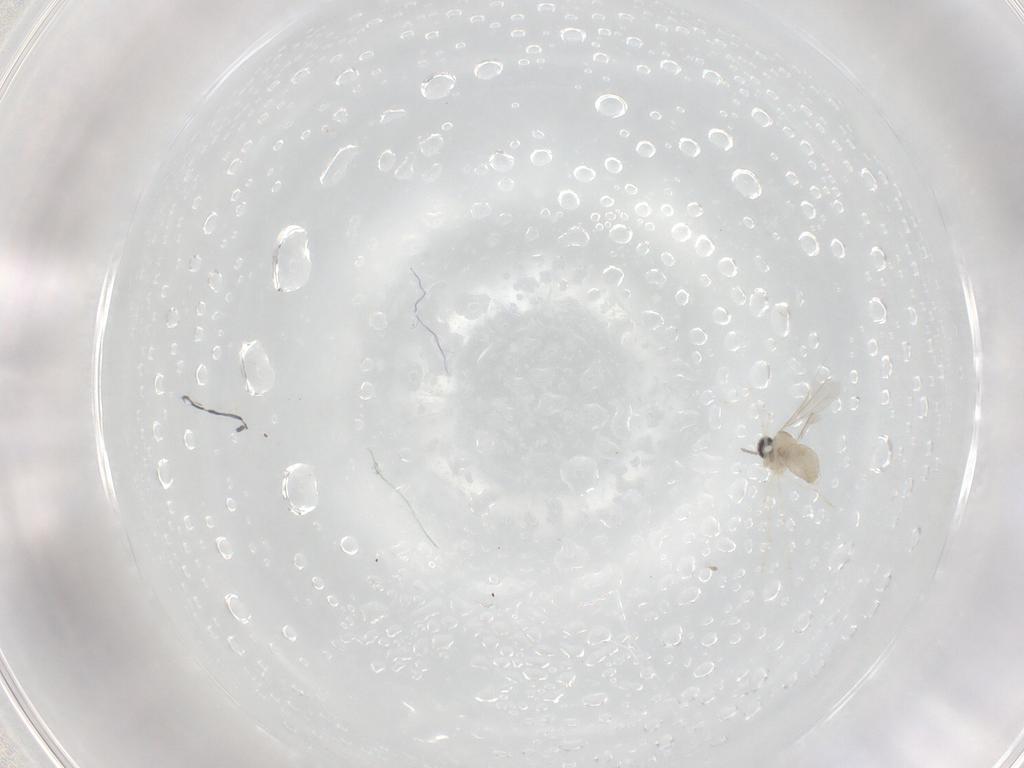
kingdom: Animalia
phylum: Arthropoda
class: Insecta
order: Diptera
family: Cecidomyiidae
